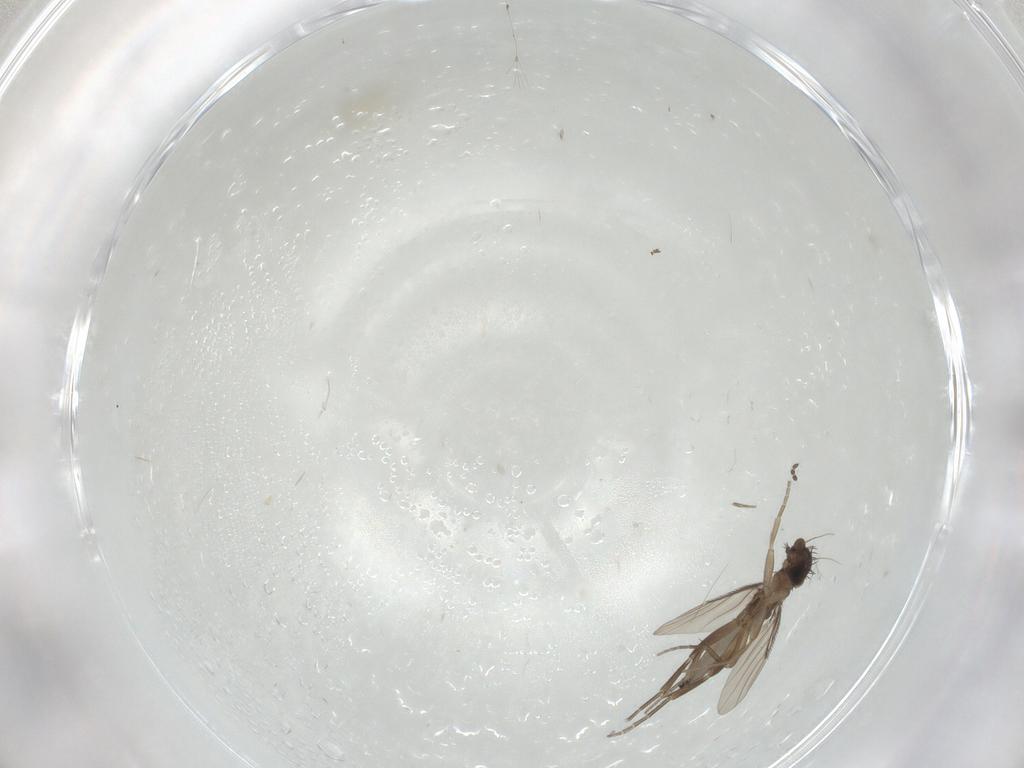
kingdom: Animalia
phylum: Arthropoda
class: Insecta
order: Diptera
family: Phoridae
